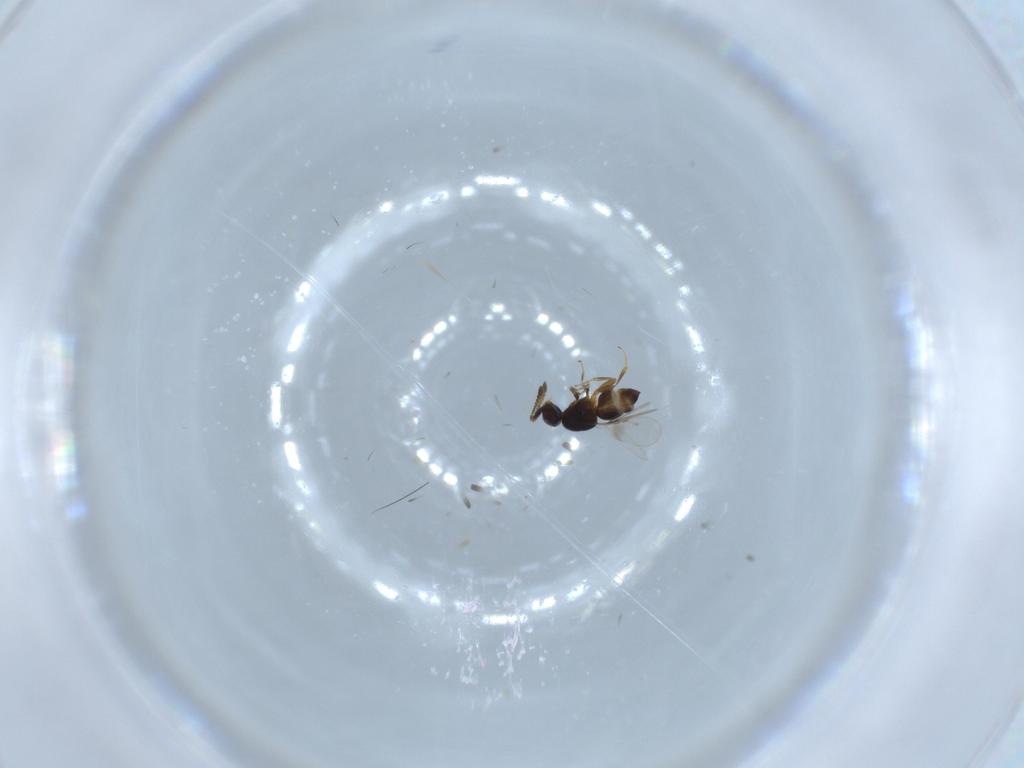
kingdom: Animalia
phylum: Arthropoda
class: Insecta
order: Hymenoptera
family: Ceraphronidae
